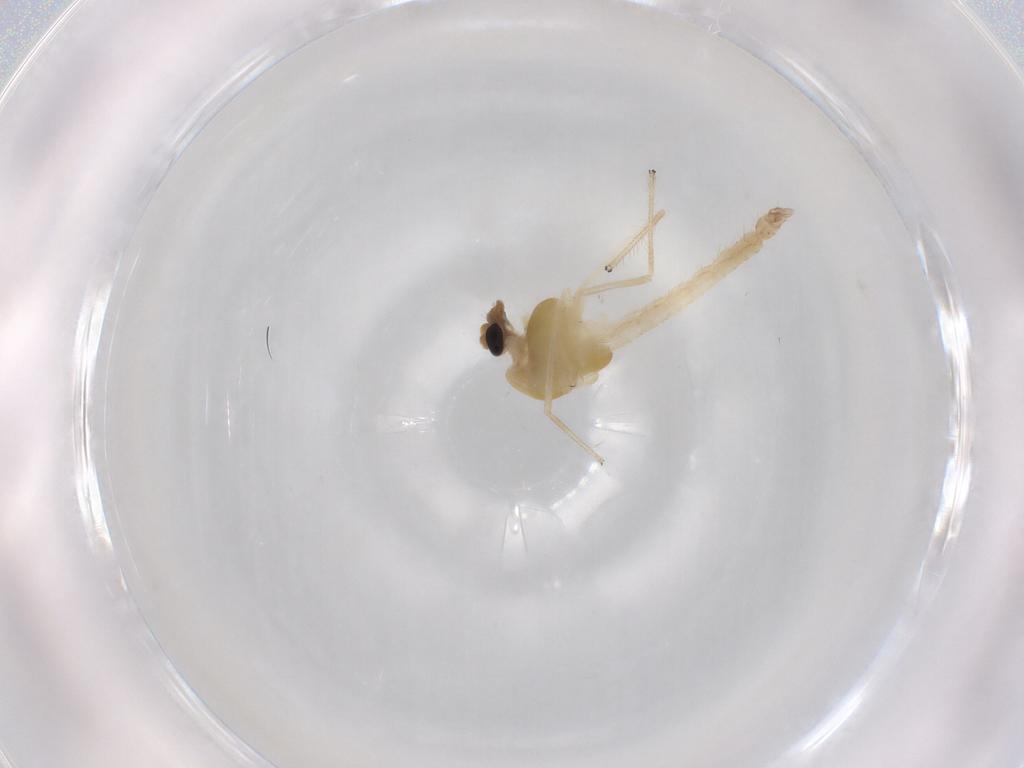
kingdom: Animalia
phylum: Arthropoda
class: Insecta
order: Diptera
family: Chironomidae
